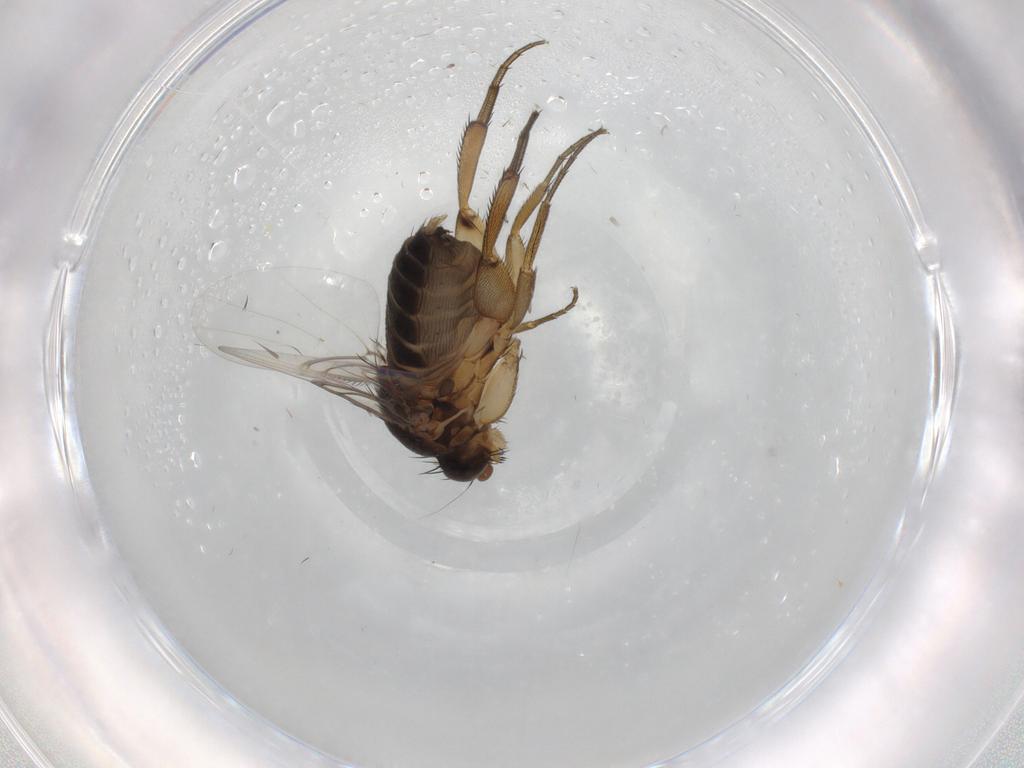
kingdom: Animalia
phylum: Arthropoda
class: Insecta
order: Diptera
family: Phoridae
